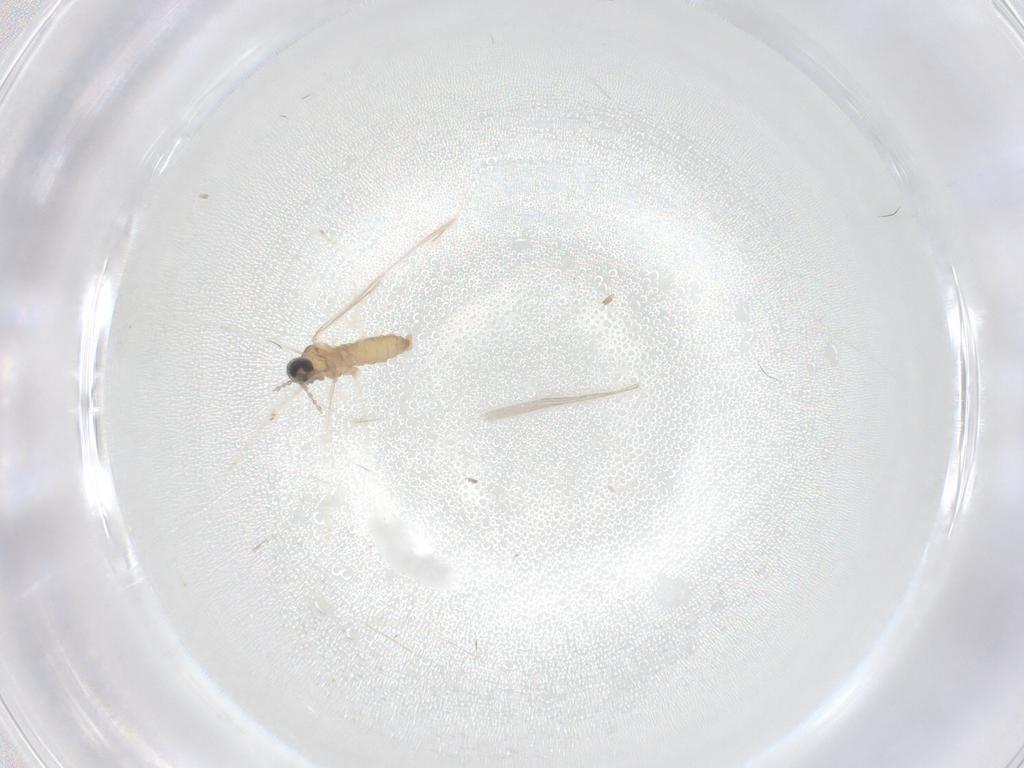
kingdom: Animalia
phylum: Arthropoda
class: Insecta
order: Diptera
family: Cecidomyiidae
